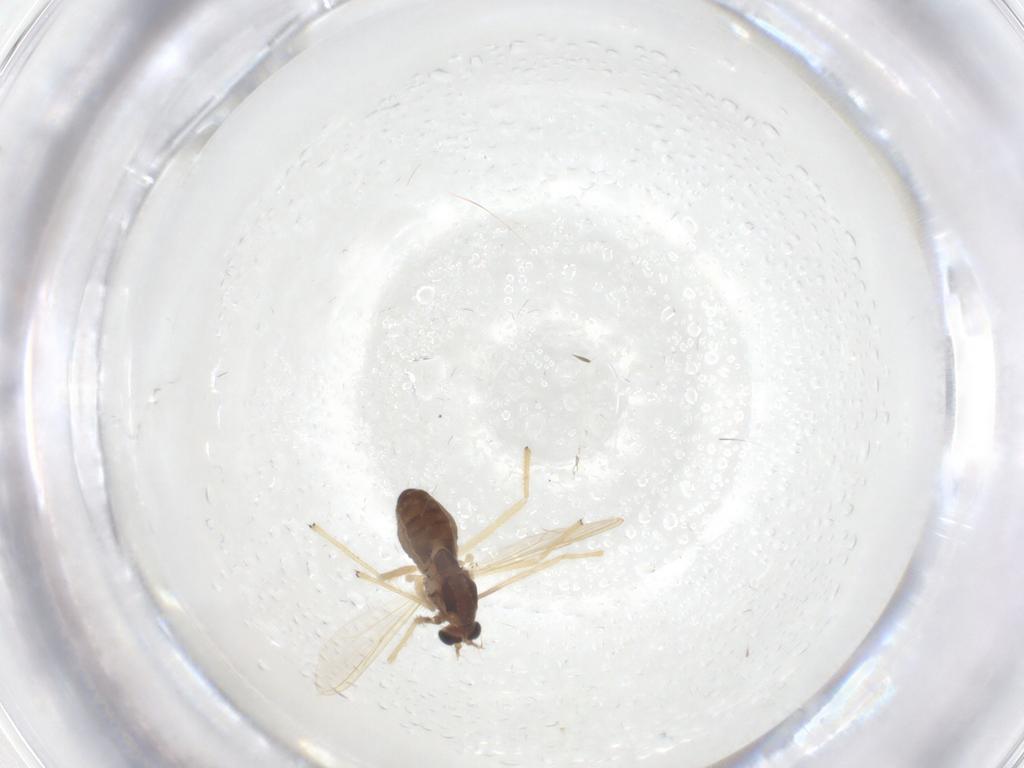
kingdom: Animalia
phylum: Arthropoda
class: Insecta
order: Diptera
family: Chironomidae
